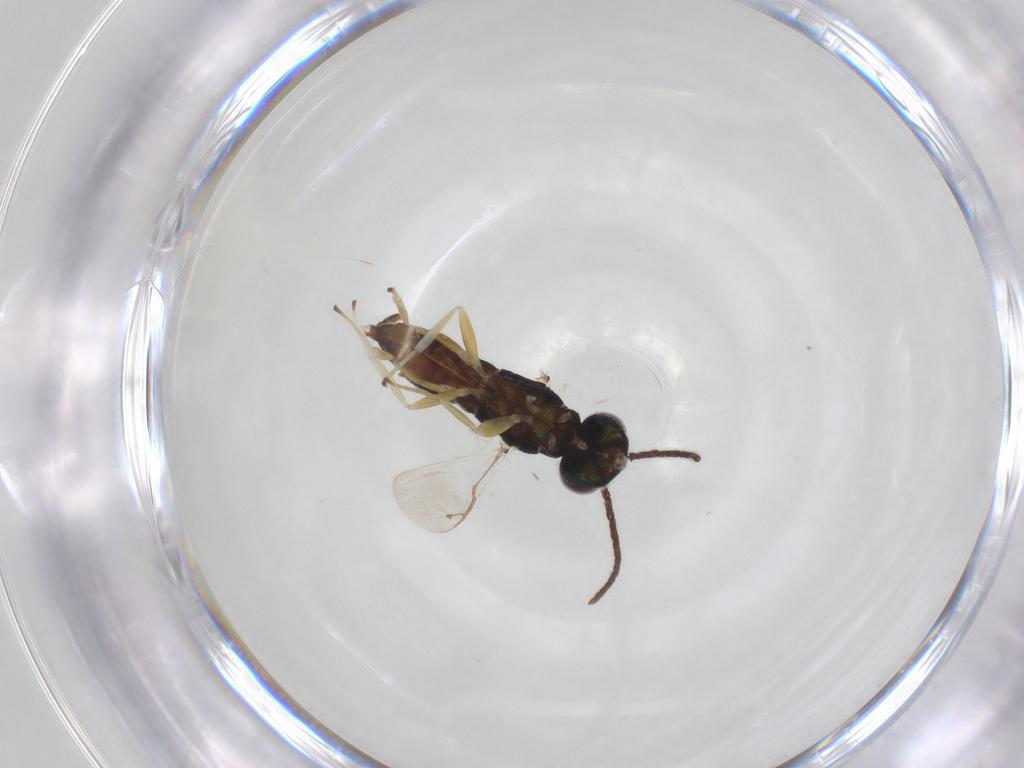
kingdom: Animalia
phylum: Arthropoda
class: Insecta
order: Hymenoptera
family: Eupelmidae
